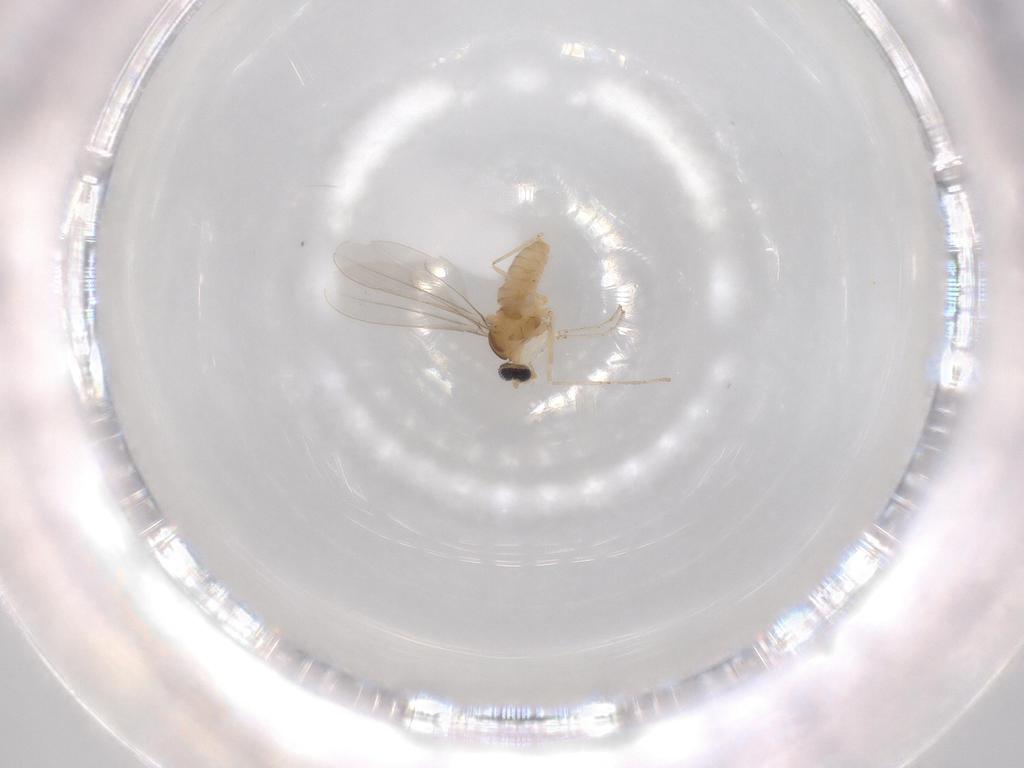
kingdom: Animalia
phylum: Arthropoda
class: Insecta
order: Diptera
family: Cecidomyiidae
